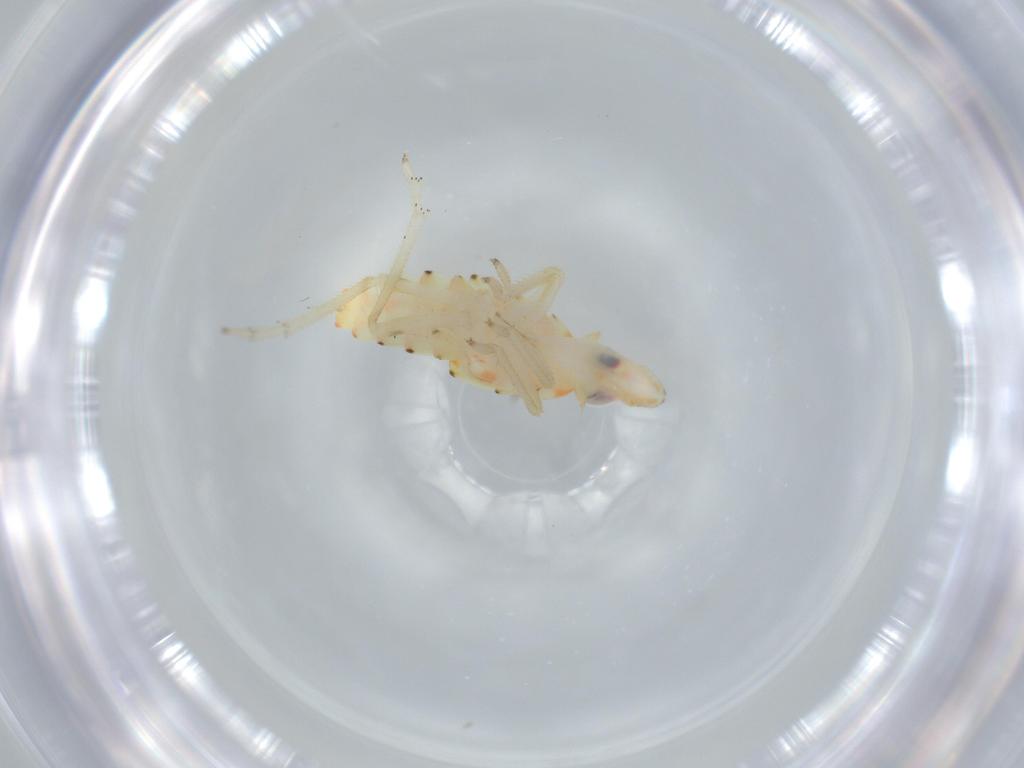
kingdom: Animalia
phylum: Arthropoda
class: Insecta
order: Hemiptera
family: Tropiduchidae
